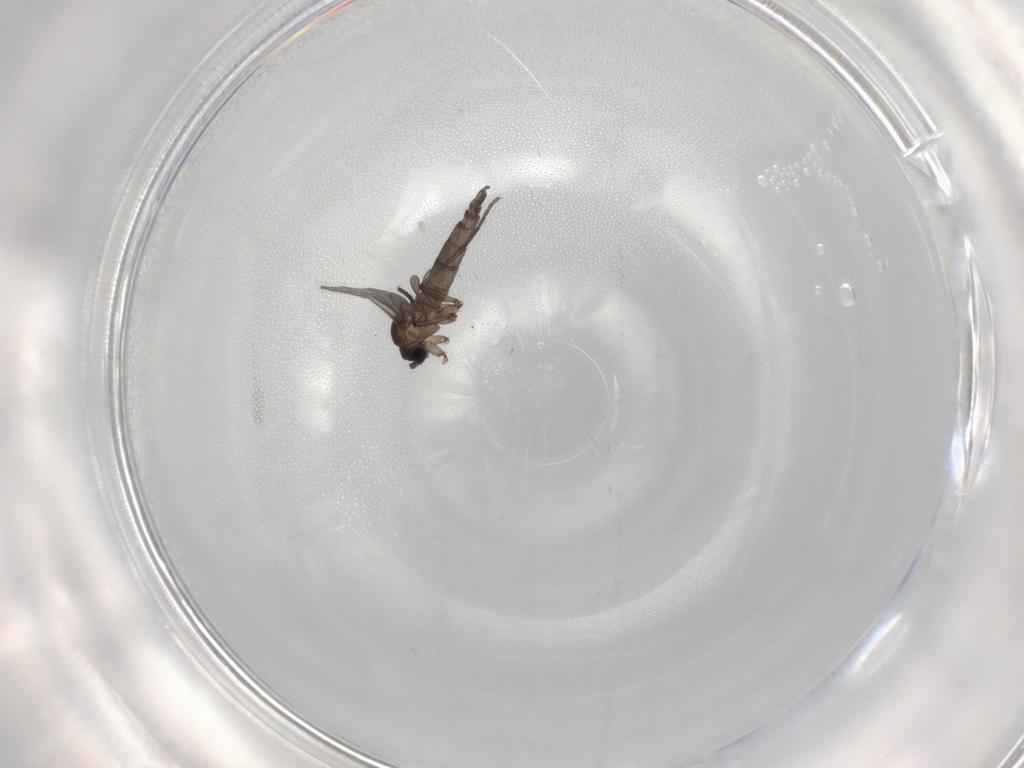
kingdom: Animalia
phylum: Arthropoda
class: Insecta
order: Diptera
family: Sciaridae
